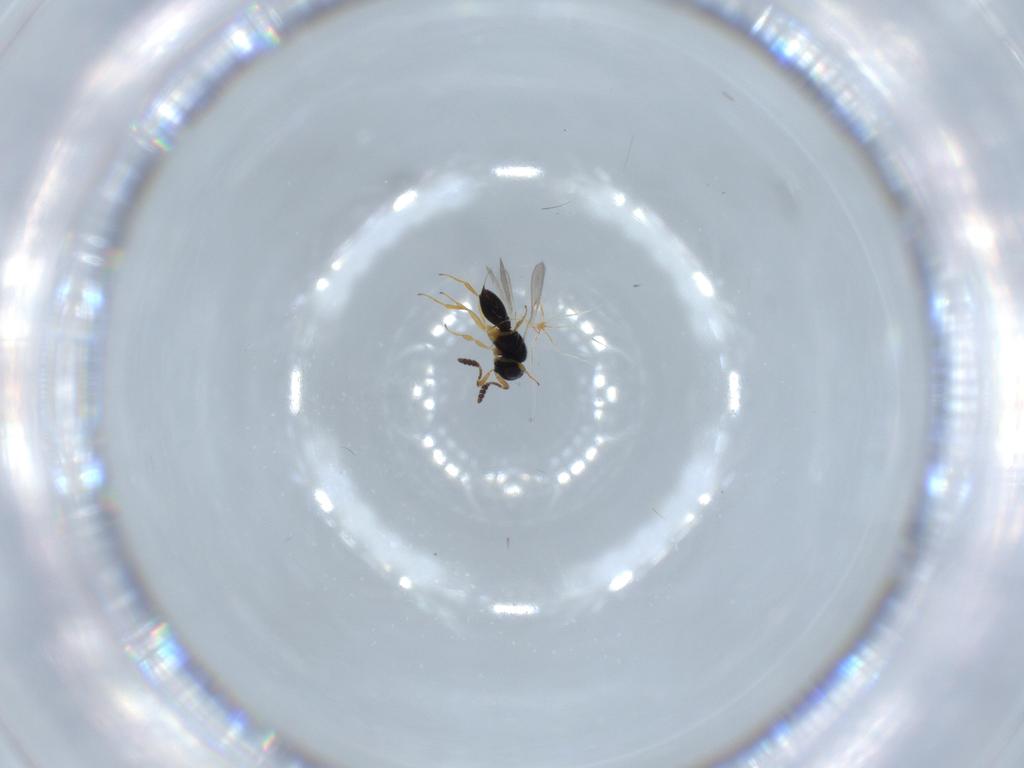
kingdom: Animalia
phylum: Arthropoda
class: Insecta
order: Hymenoptera
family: Scelionidae
